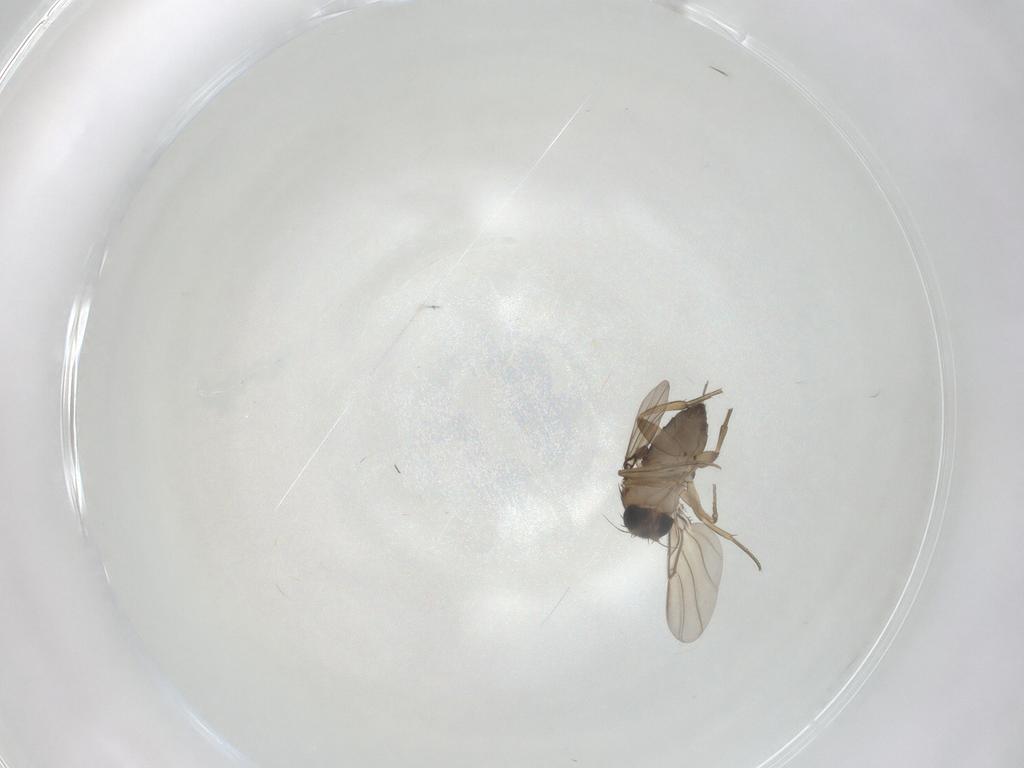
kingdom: Animalia
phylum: Arthropoda
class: Insecta
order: Diptera
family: Phoridae
